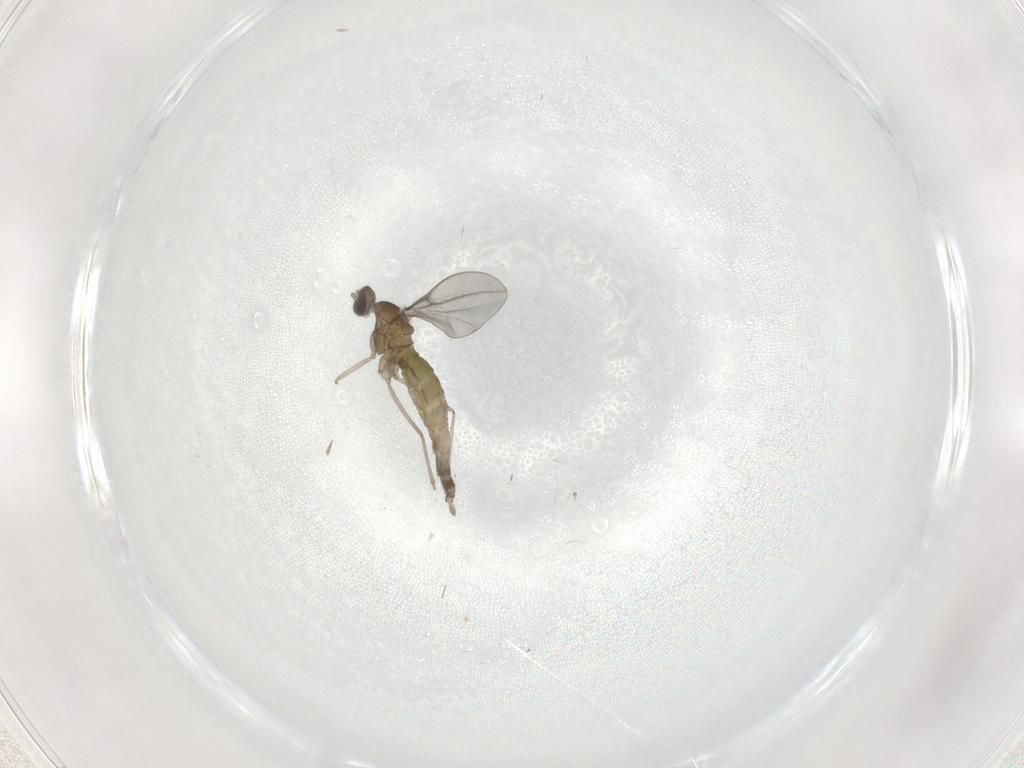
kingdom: Animalia
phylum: Arthropoda
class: Insecta
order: Diptera
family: Cecidomyiidae
